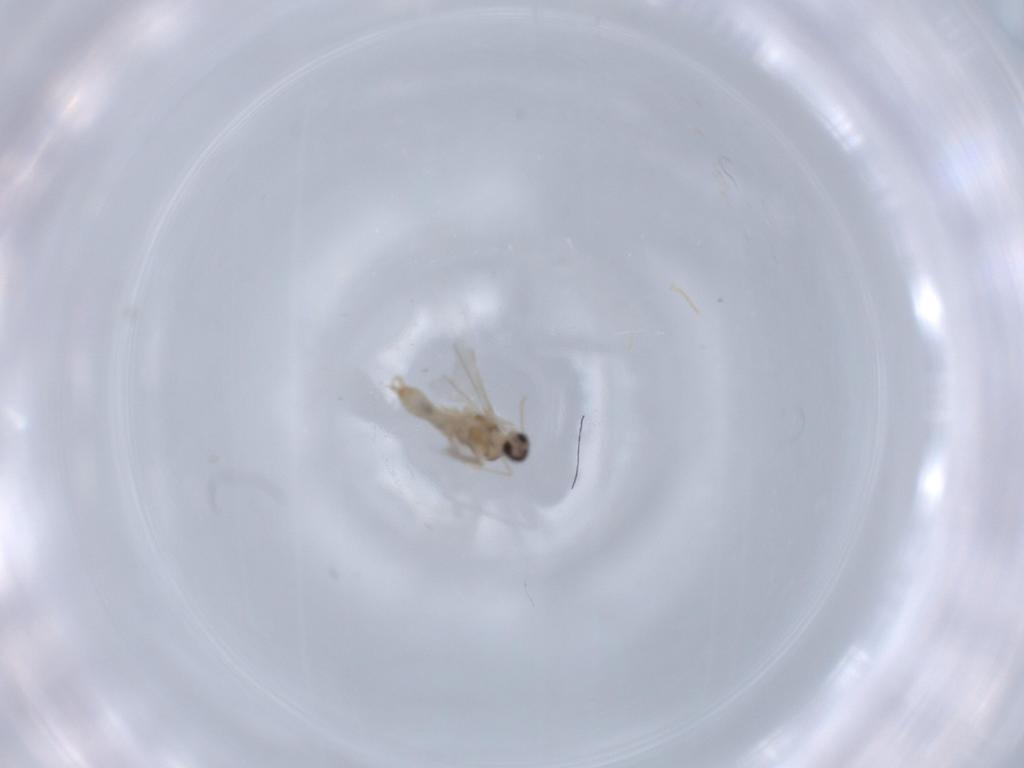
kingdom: Animalia
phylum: Arthropoda
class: Insecta
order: Diptera
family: Cecidomyiidae
